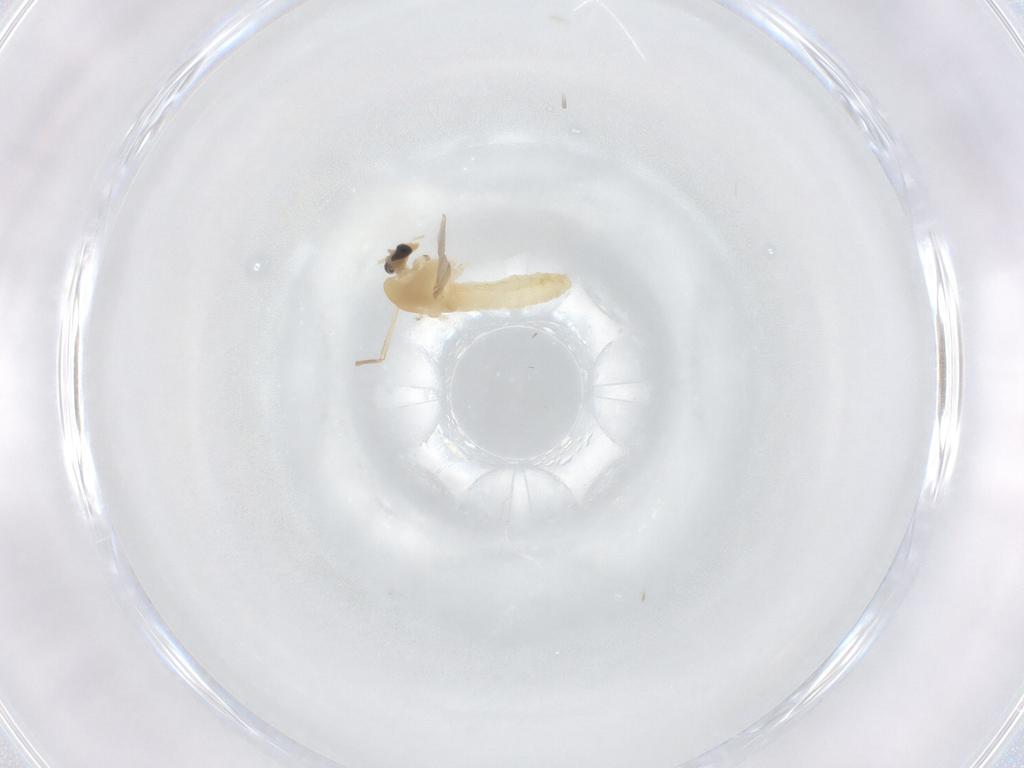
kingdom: Animalia
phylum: Arthropoda
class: Insecta
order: Diptera
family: Chironomidae
